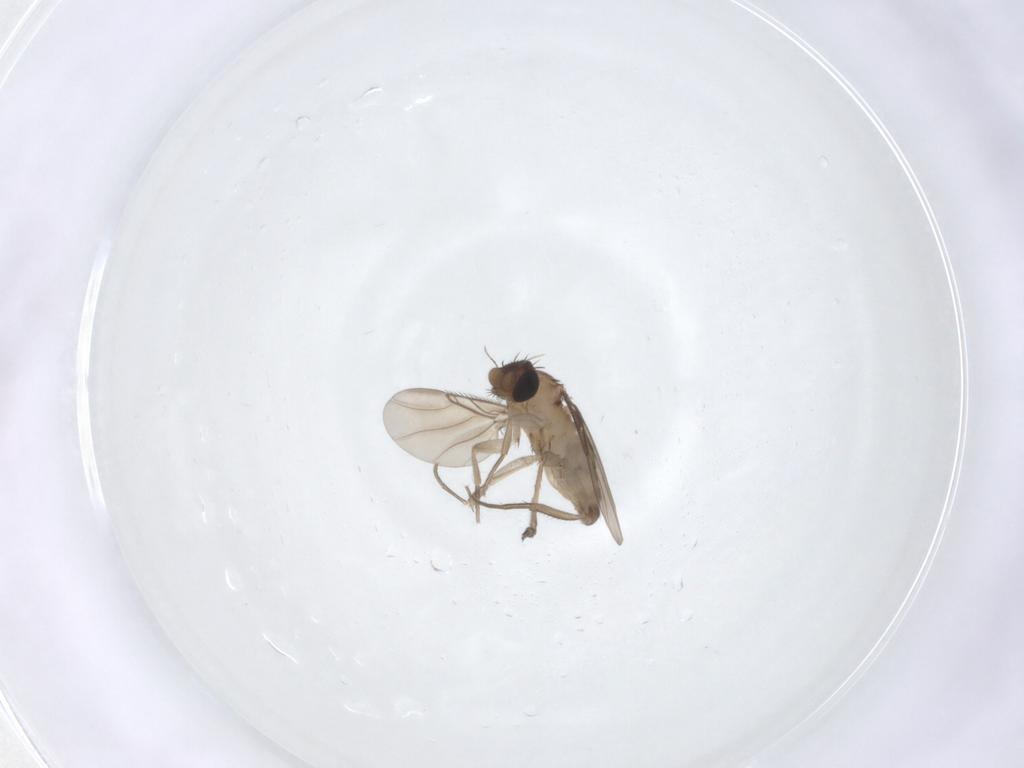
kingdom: Animalia
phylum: Arthropoda
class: Insecta
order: Diptera
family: Phoridae
